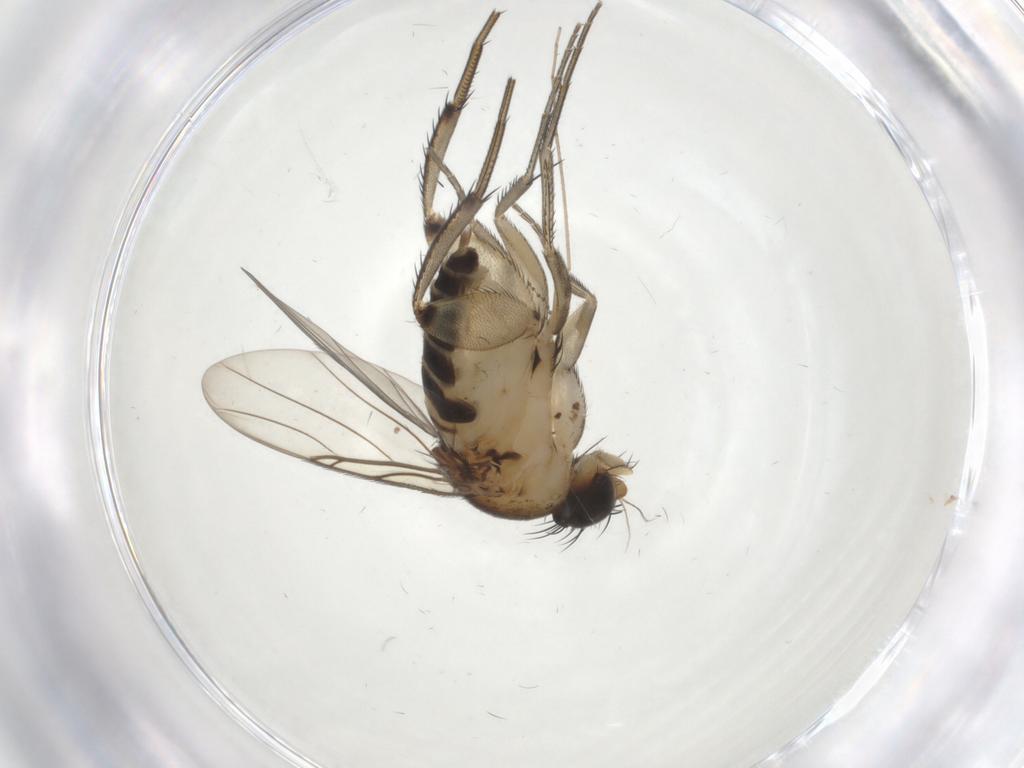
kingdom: Animalia
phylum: Arthropoda
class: Insecta
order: Diptera
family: Phoridae
